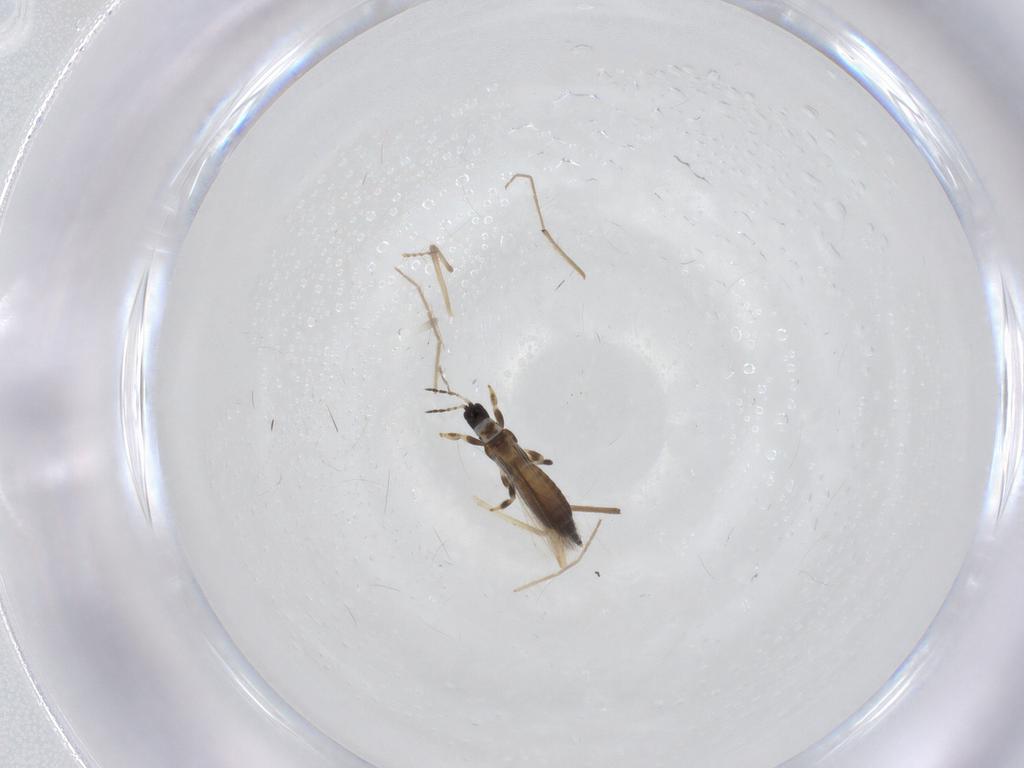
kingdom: Animalia
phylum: Arthropoda
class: Insecta
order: Diptera
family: Chironomidae
